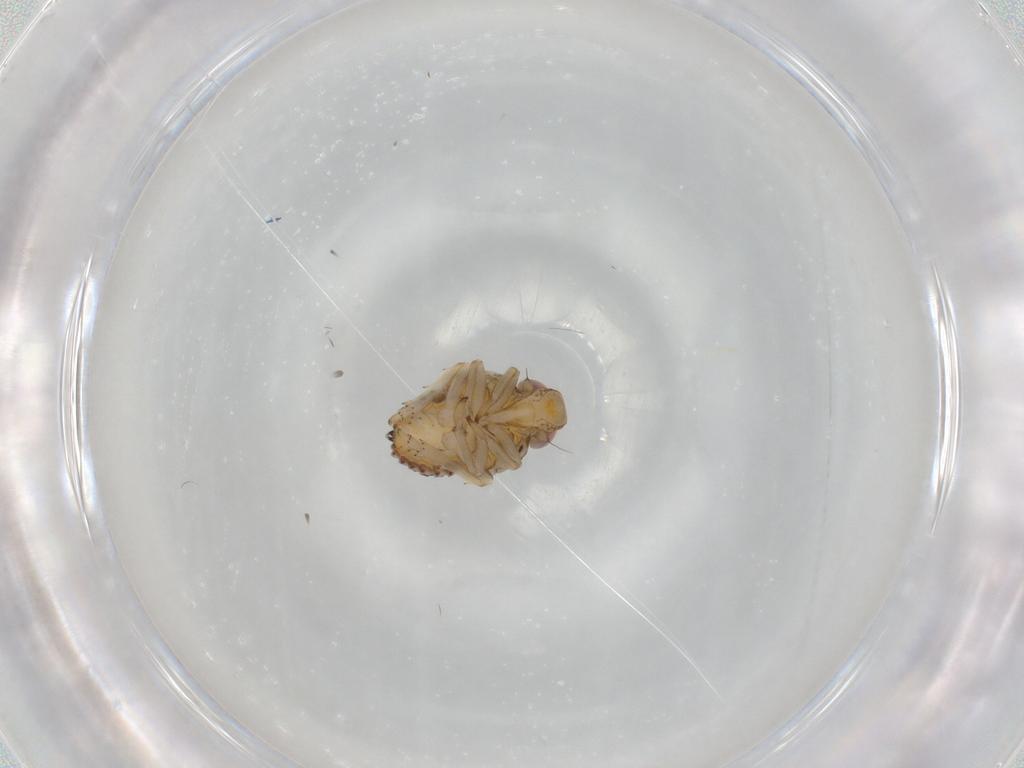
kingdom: Animalia
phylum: Arthropoda
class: Insecta
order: Hemiptera
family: Issidae
